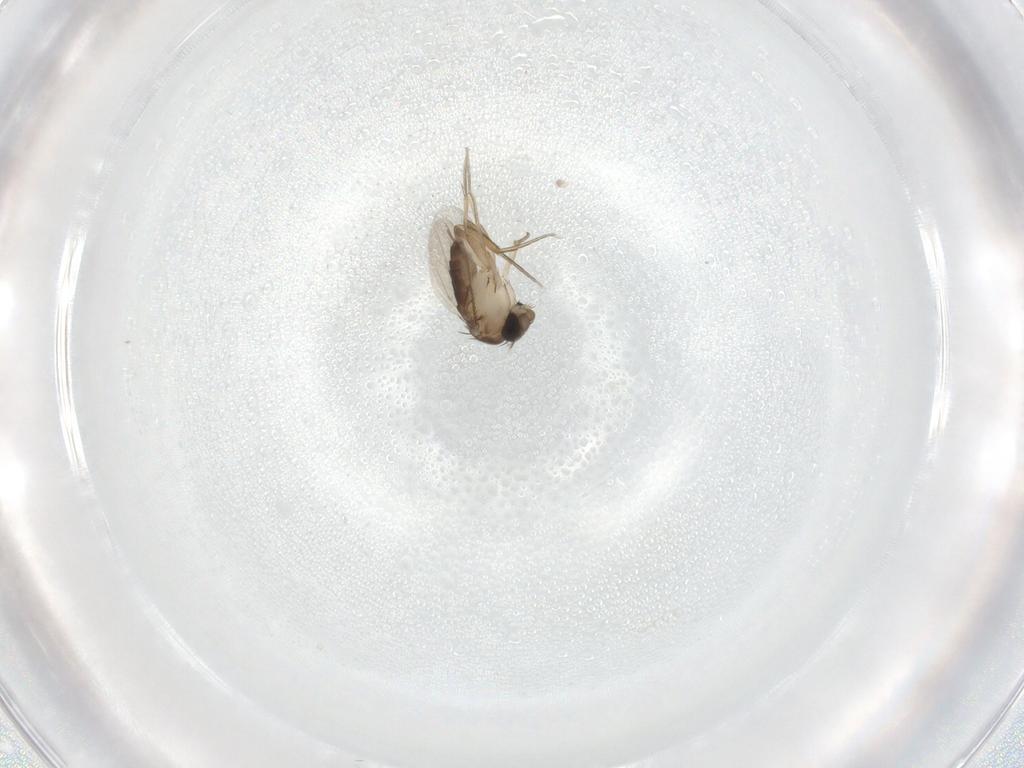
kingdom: Animalia
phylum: Arthropoda
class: Insecta
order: Diptera
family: Phoridae
